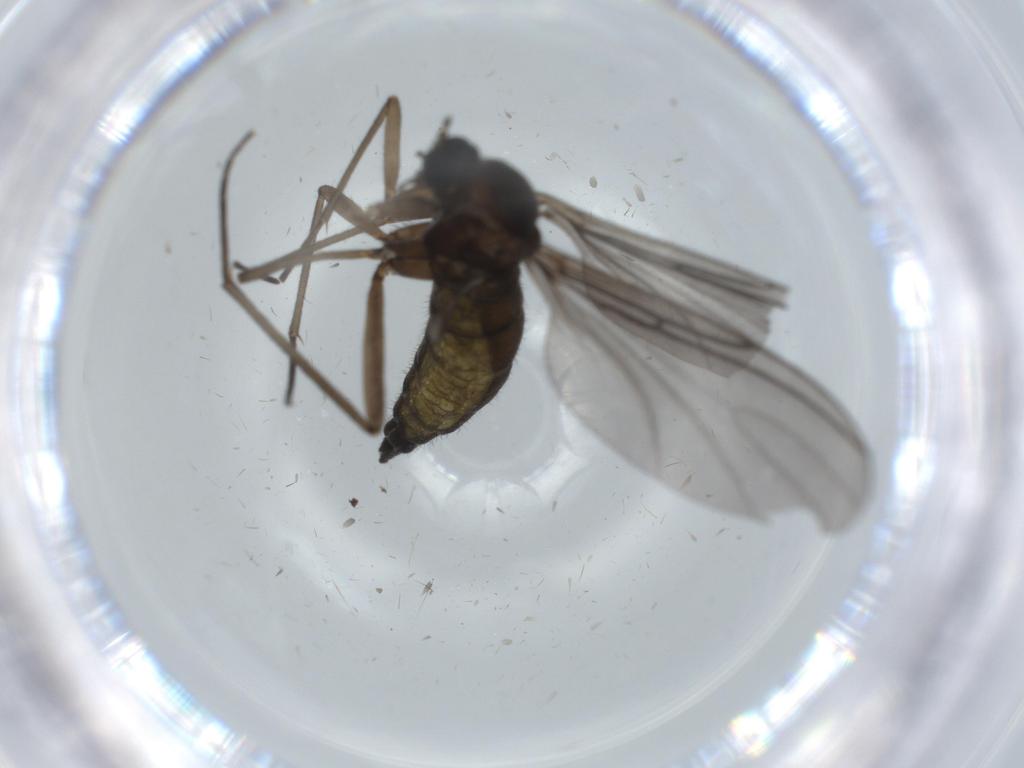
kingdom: Animalia
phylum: Arthropoda
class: Insecta
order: Diptera
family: Sciaridae
